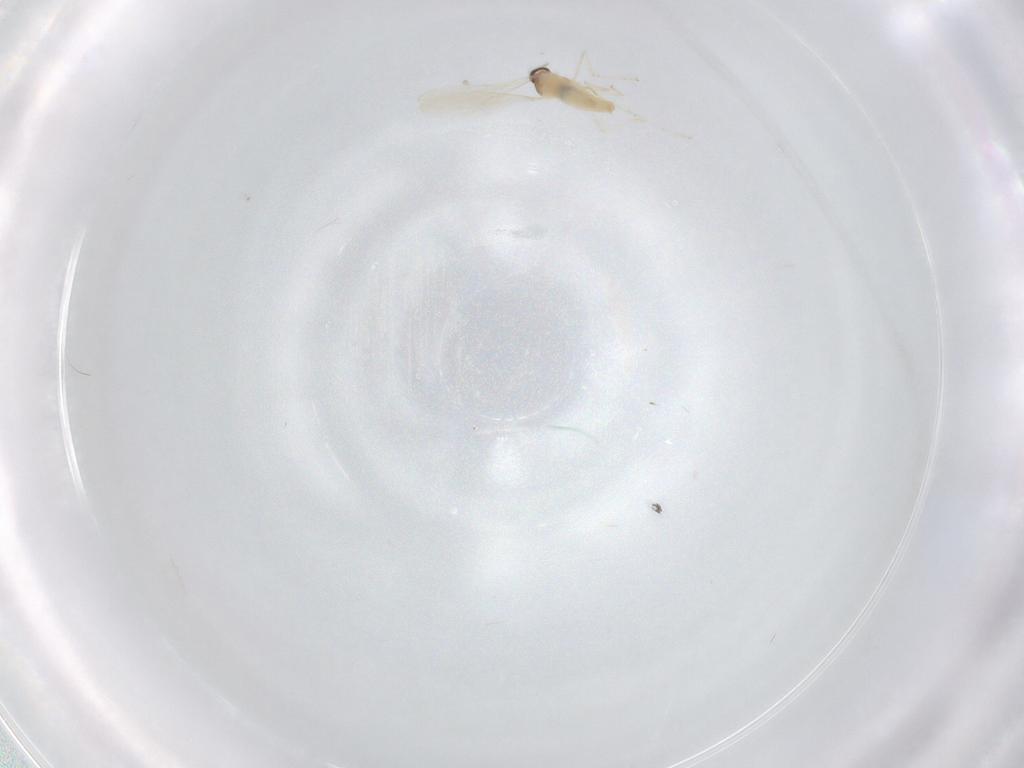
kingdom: Animalia
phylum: Arthropoda
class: Insecta
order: Diptera
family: Cecidomyiidae
